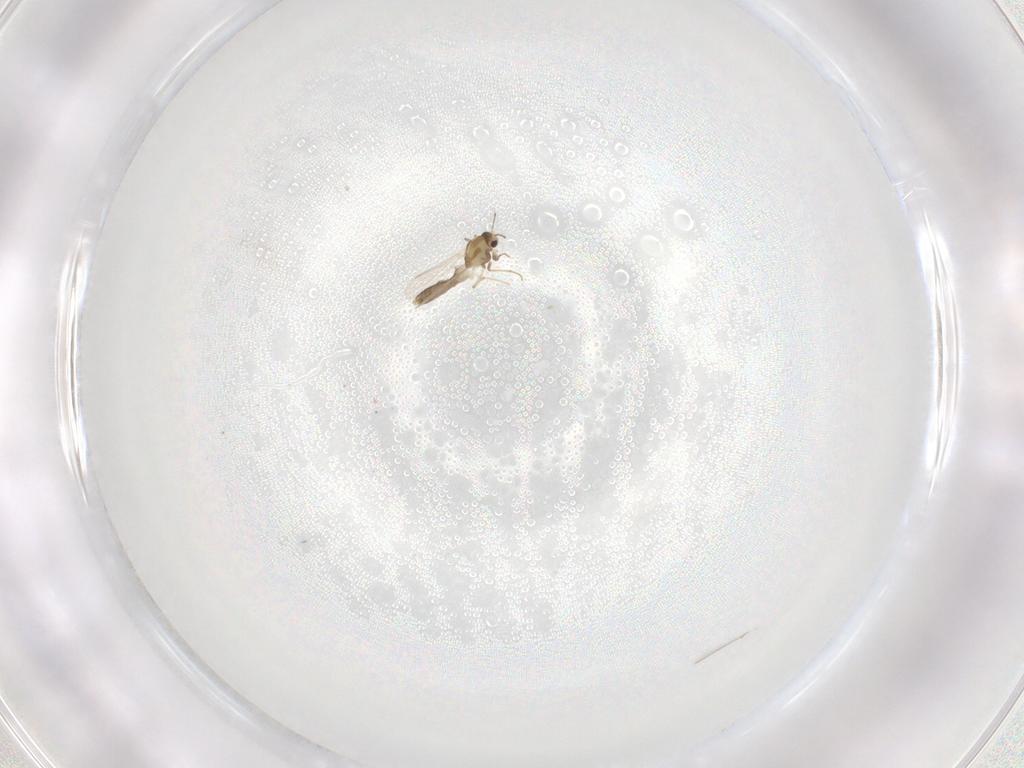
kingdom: Animalia
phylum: Arthropoda
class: Insecta
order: Diptera
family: Chironomidae
